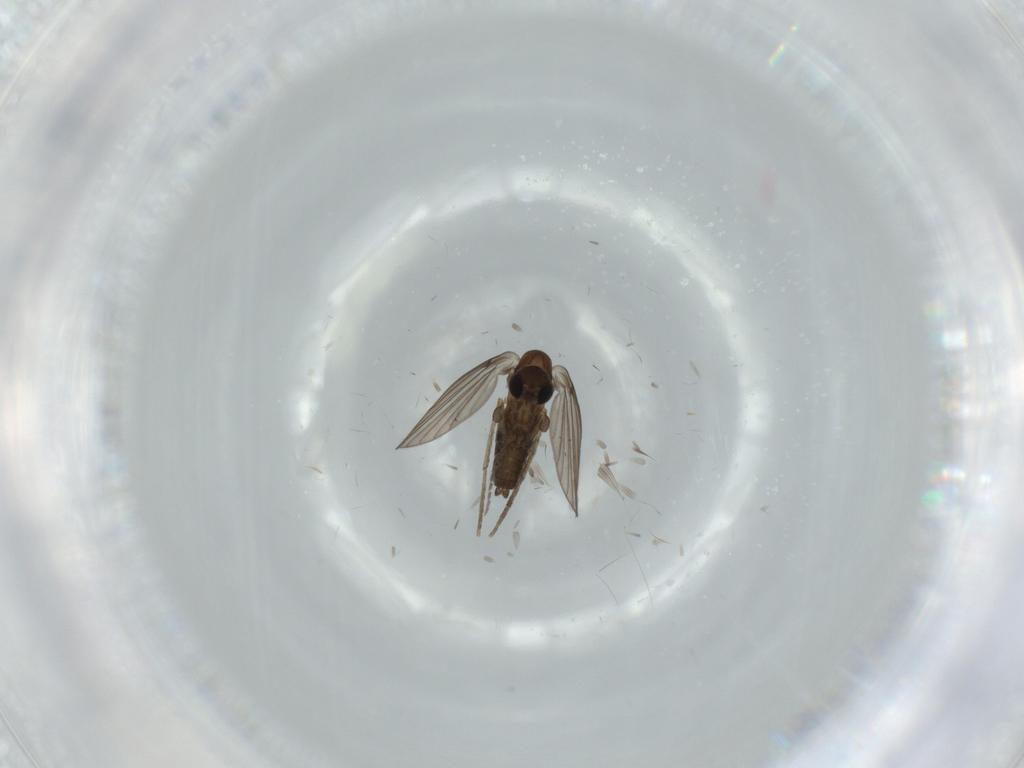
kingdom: Animalia
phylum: Arthropoda
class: Insecta
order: Diptera
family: Psychodidae
